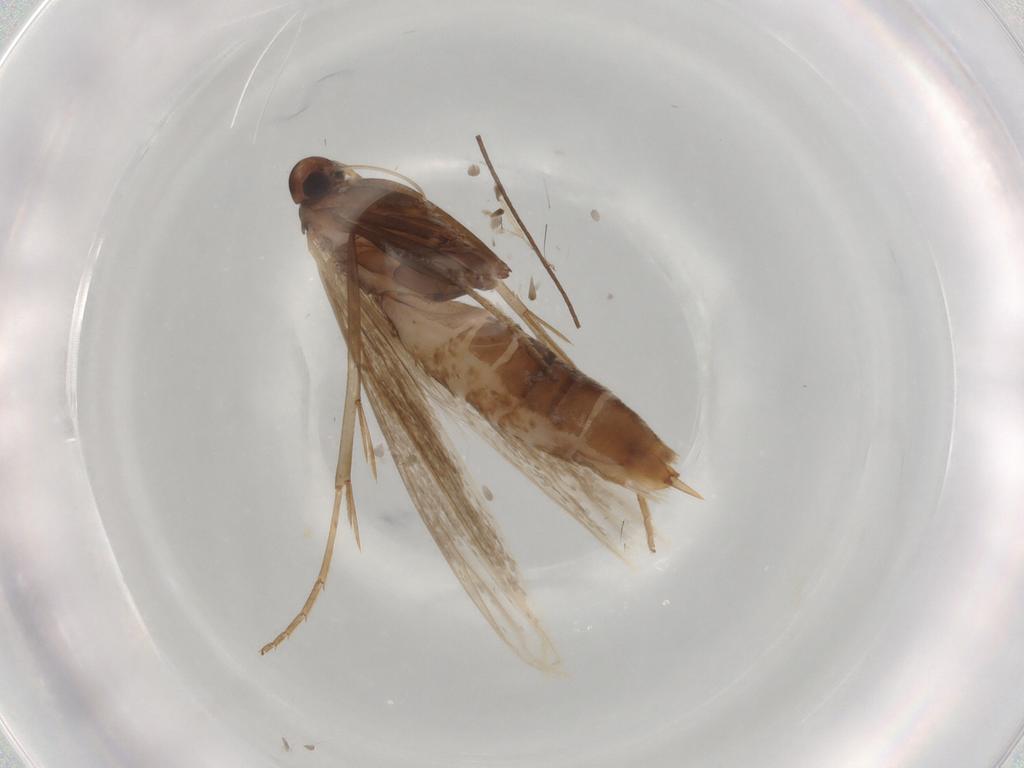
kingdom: Animalia
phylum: Arthropoda
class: Insecta
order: Lepidoptera
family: Coleophoridae
